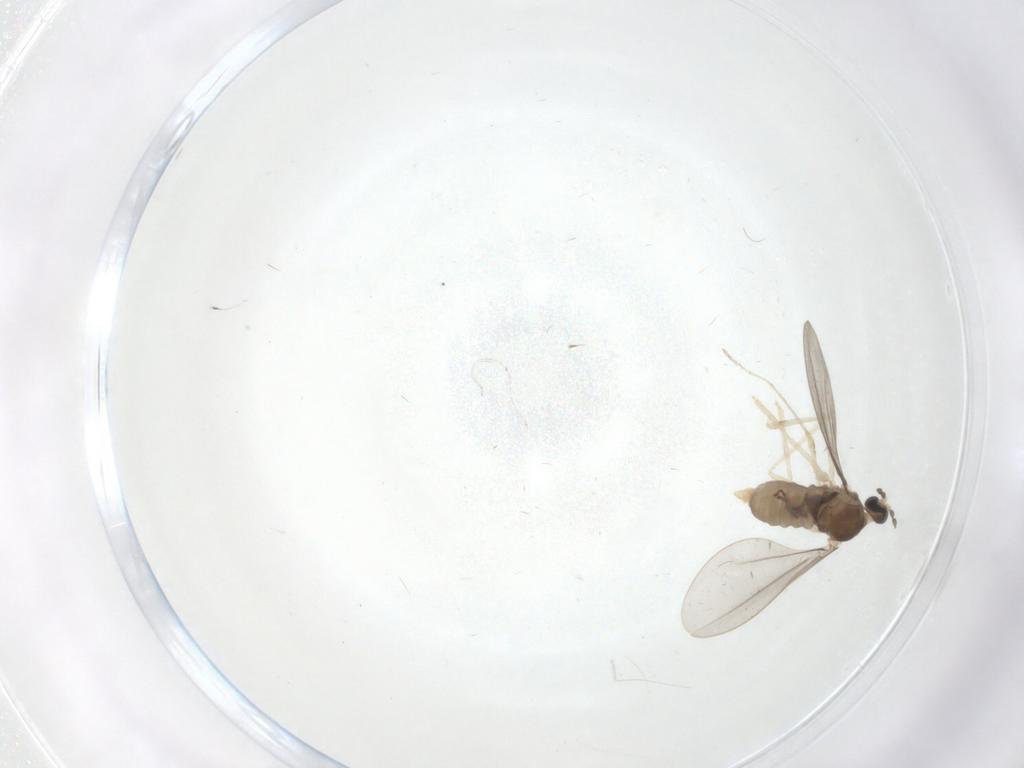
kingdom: Animalia
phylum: Arthropoda
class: Insecta
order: Diptera
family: Cecidomyiidae
